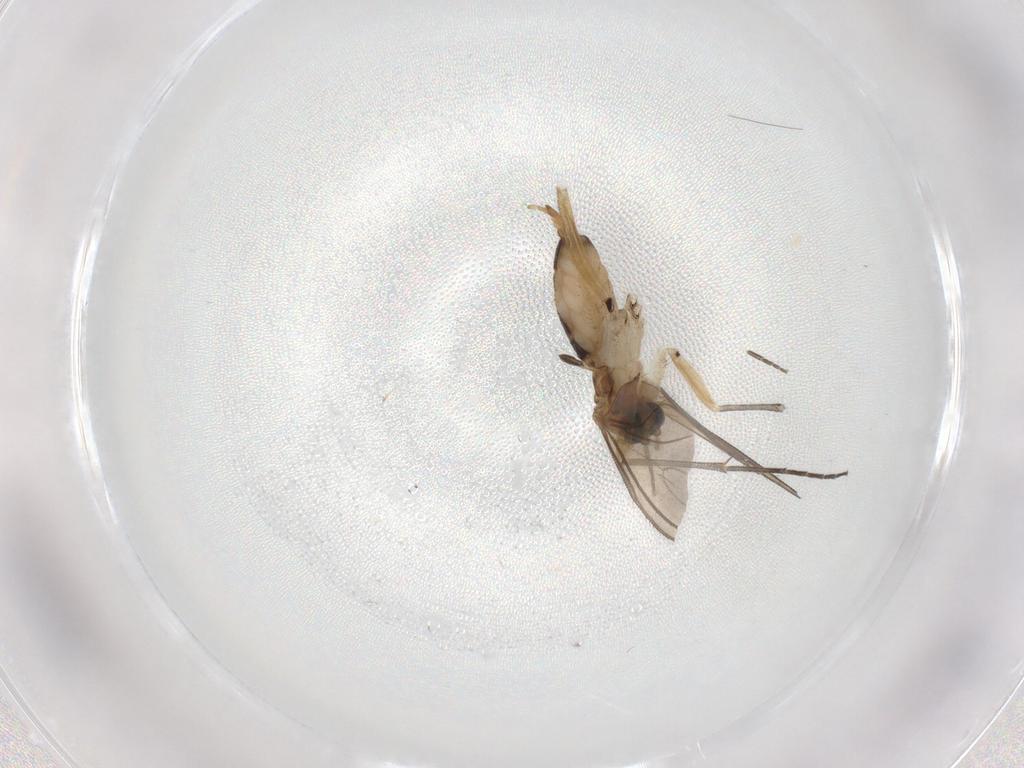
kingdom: Animalia
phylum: Arthropoda
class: Insecta
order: Diptera
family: Phoridae
